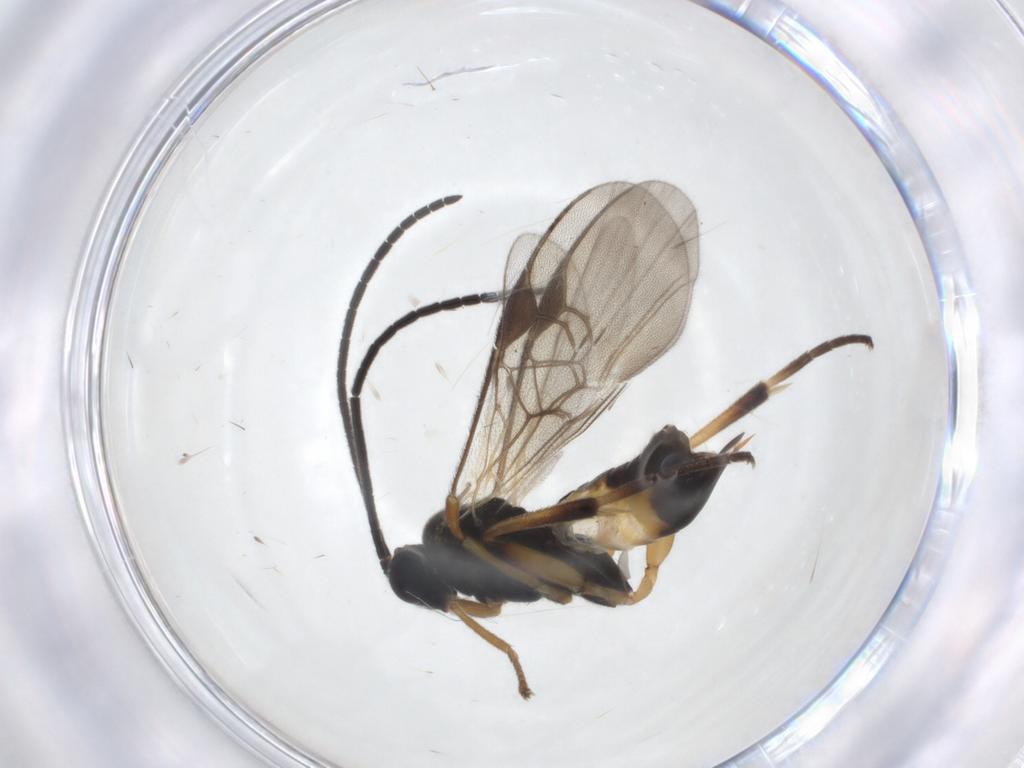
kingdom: Animalia
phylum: Arthropoda
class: Insecta
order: Hymenoptera
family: Braconidae
